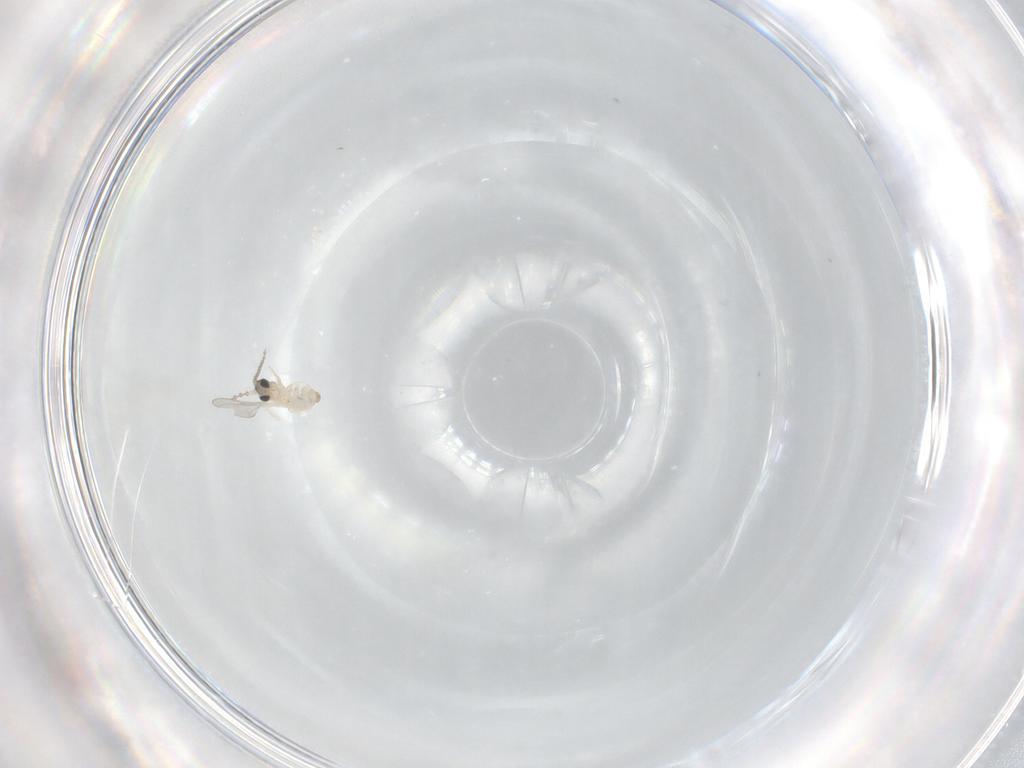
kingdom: Animalia
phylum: Arthropoda
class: Insecta
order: Diptera
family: Cecidomyiidae
